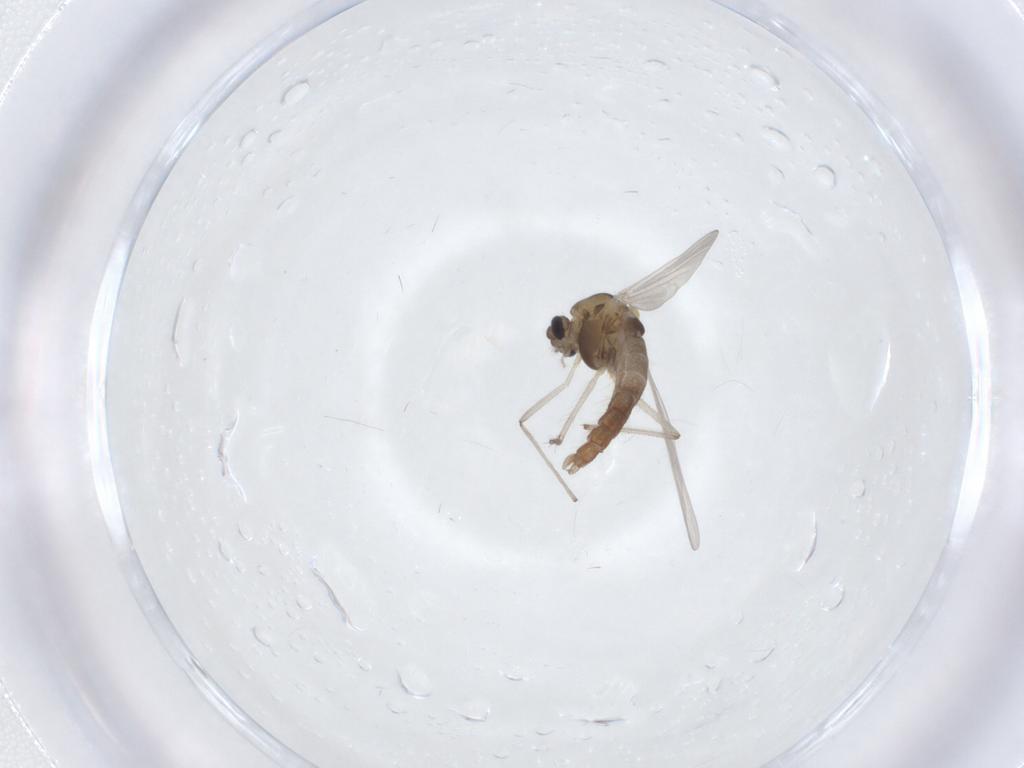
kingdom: Animalia
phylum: Arthropoda
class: Insecta
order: Diptera
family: Chironomidae
